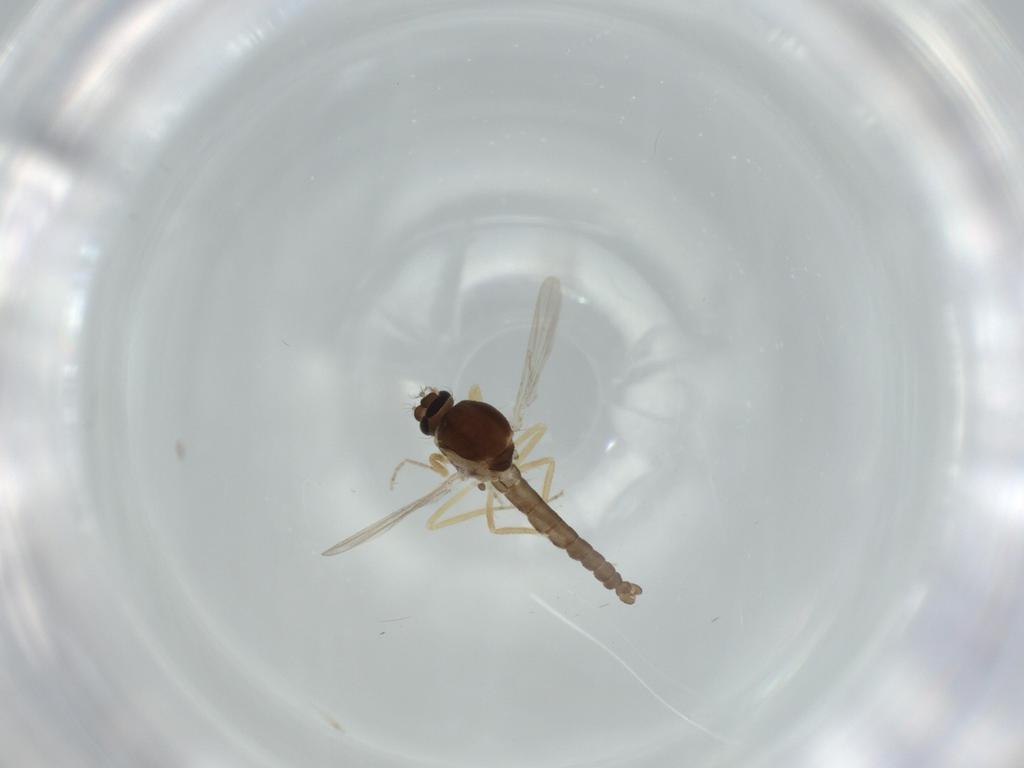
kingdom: Animalia
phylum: Arthropoda
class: Insecta
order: Diptera
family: Ceratopogonidae
